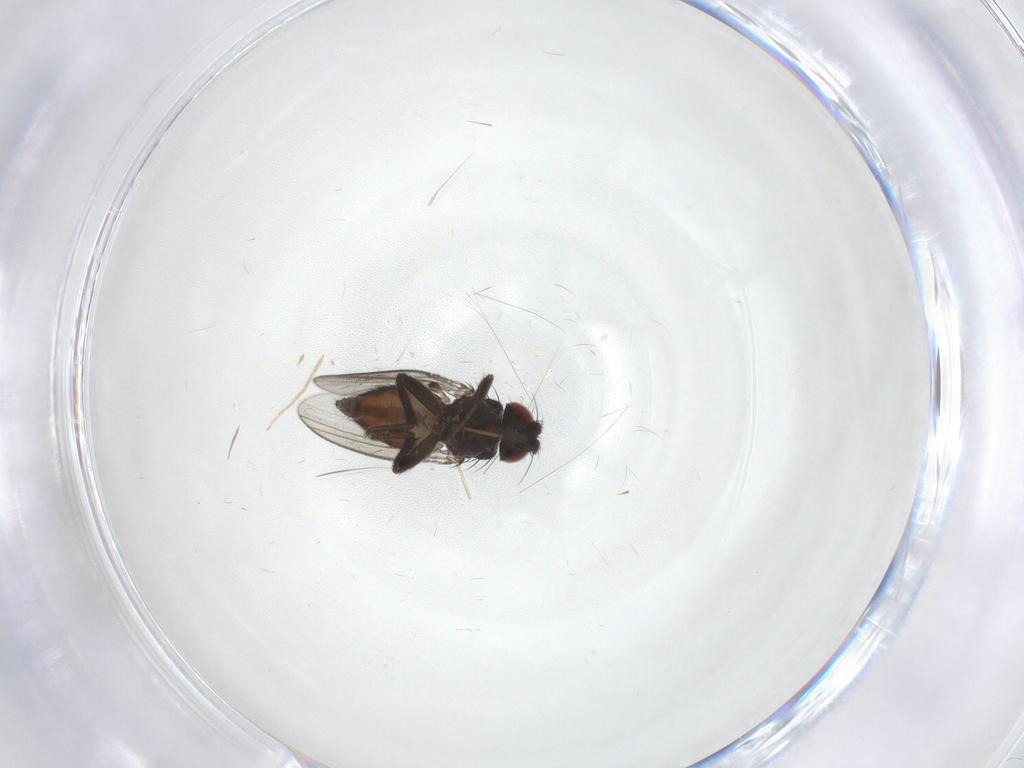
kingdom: Animalia
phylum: Arthropoda
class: Insecta
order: Diptera
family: Milichiidae
